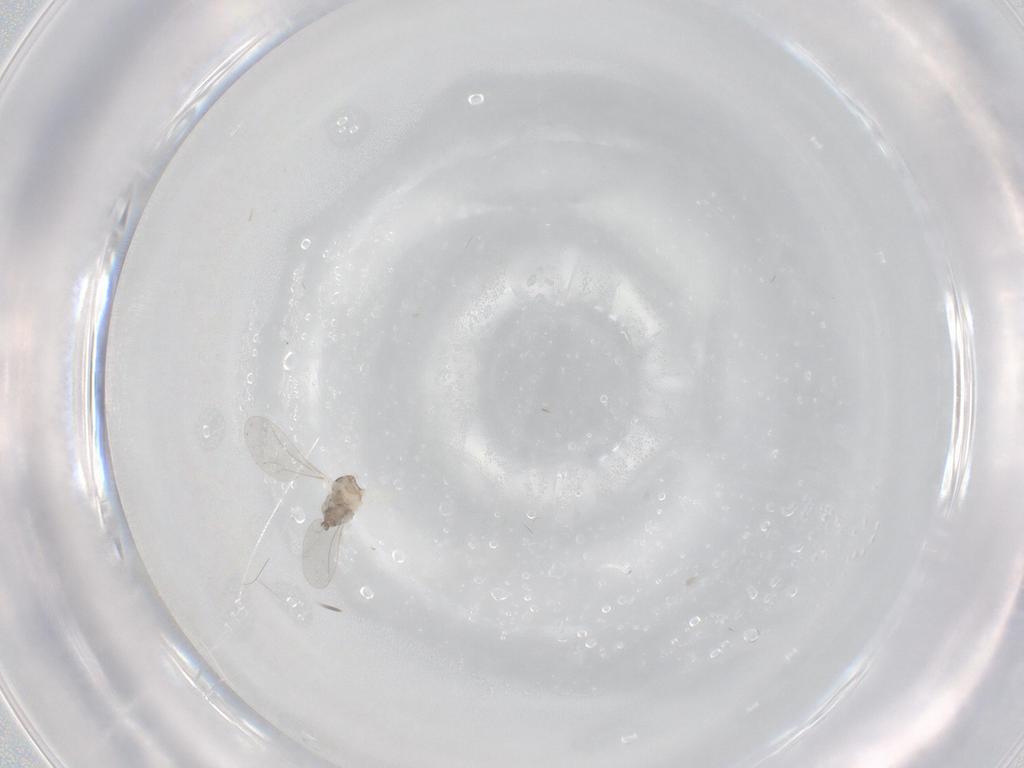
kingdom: Animalia
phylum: Arthropoda
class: Insecta
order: Diptera
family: Cecidomyiidae
